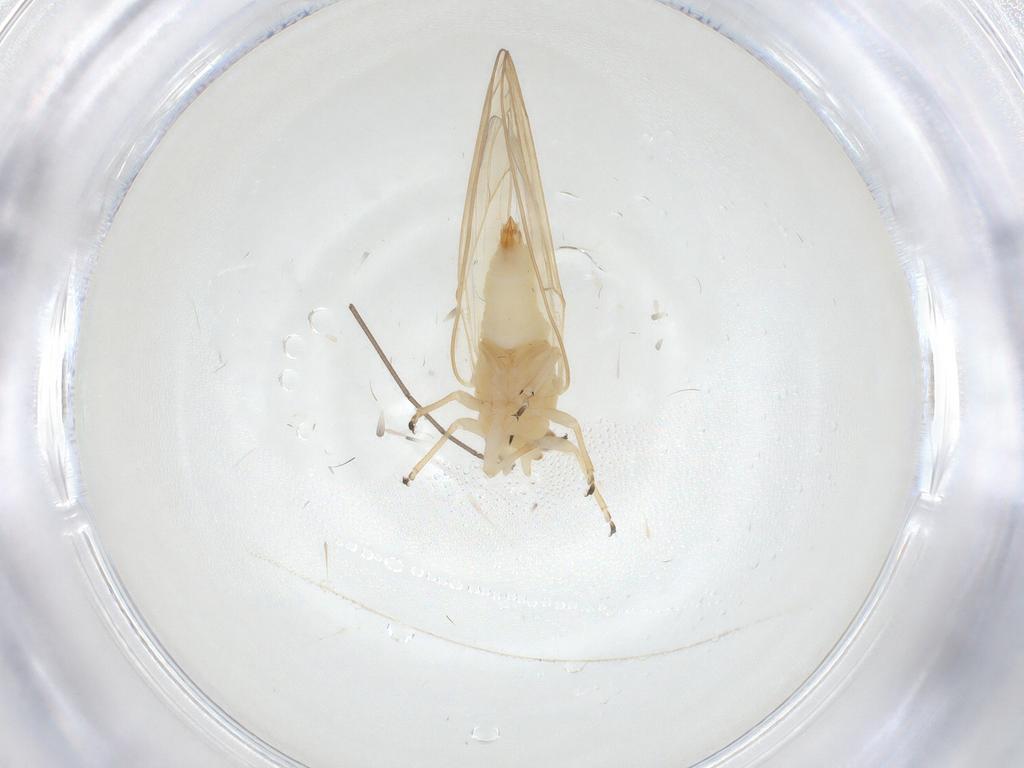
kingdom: Animalia
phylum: Arthropoda
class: Insecta
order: Hemiptera
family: Triozidae
